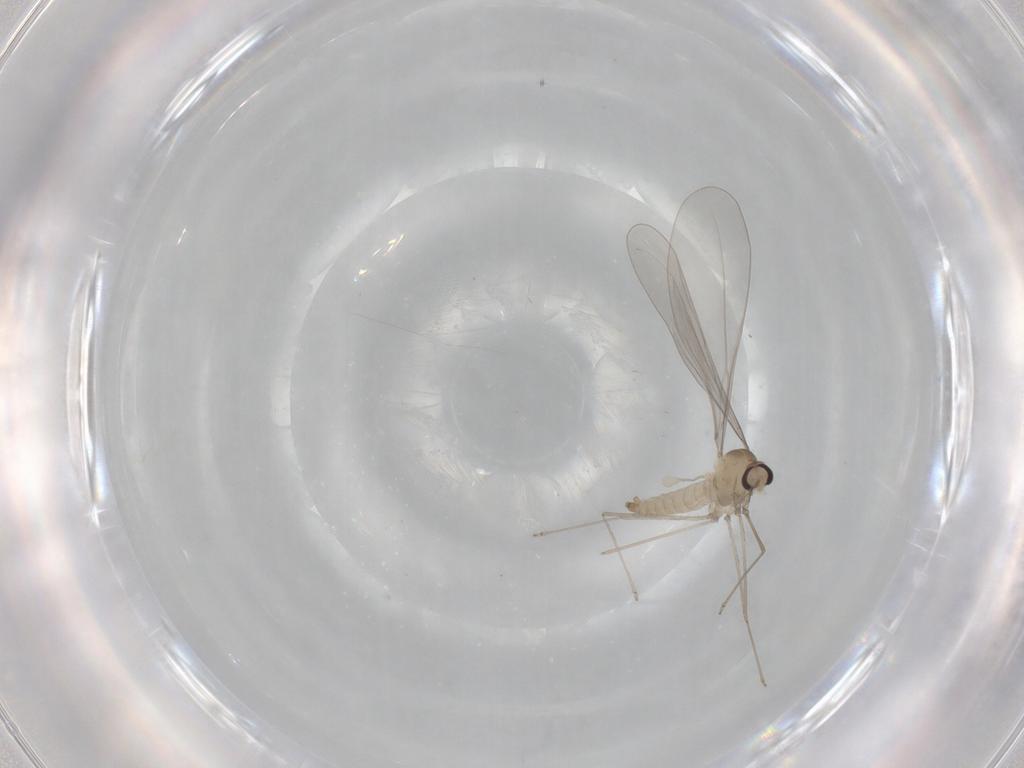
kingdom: Animalia
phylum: Arthropoda
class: Insecta
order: Diptera
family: Cecidomyiidae
